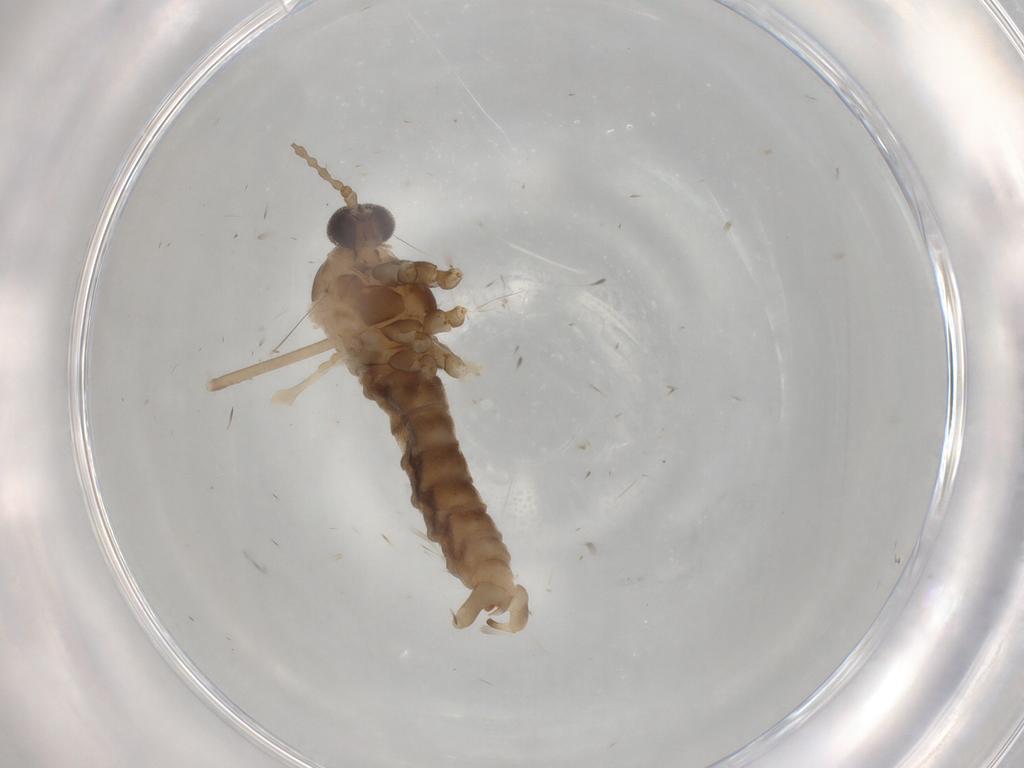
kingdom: Animalia
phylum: Arthropoda
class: Insecta
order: Diptera
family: Cecidomyiidae
